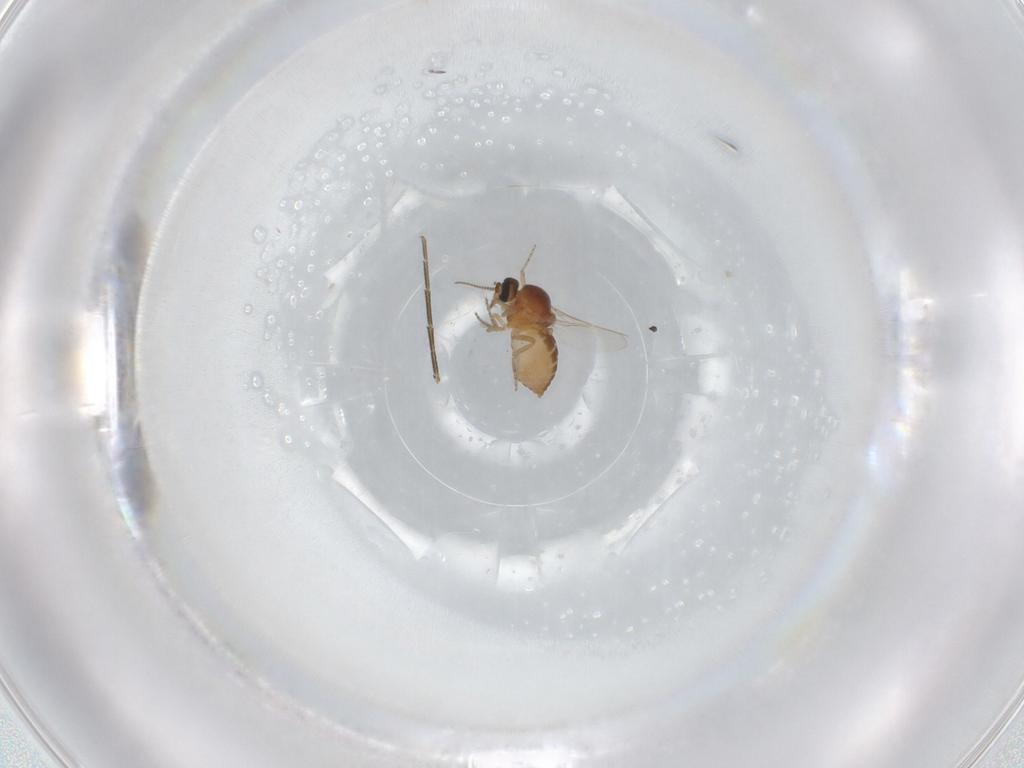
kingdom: Animalia
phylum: Arthropoda
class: Insecta
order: Diptera
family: Ceratopogonidae
